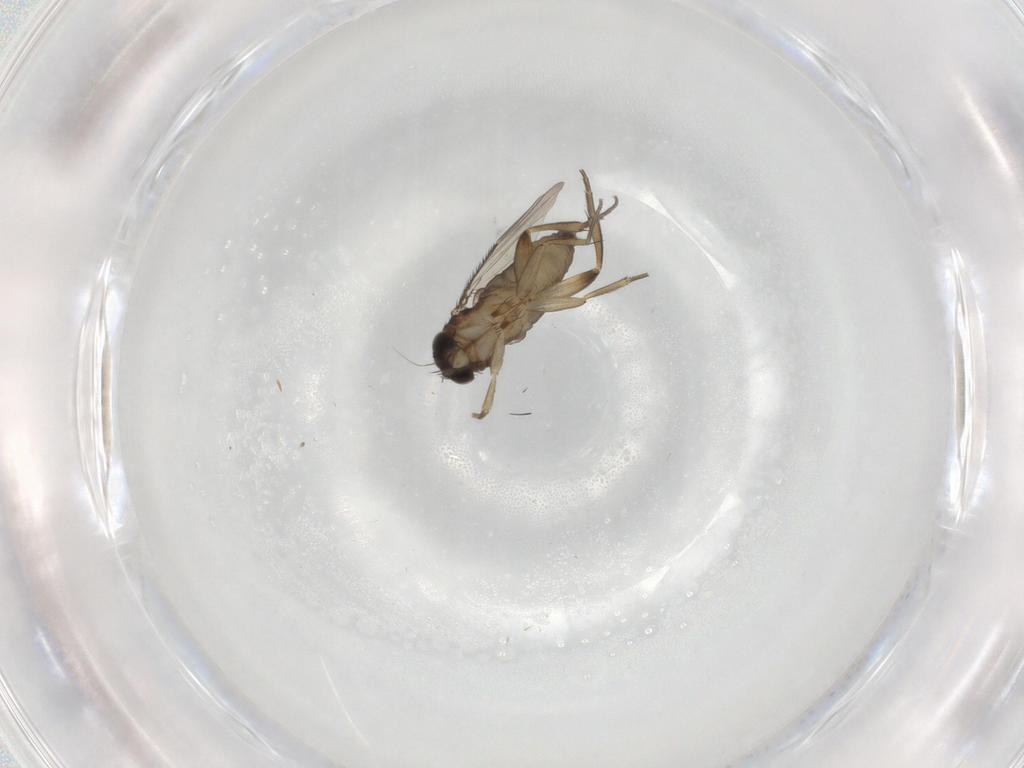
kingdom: Animalia
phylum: Arthropoda
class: Insecta
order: Diptera
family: Phoridae
